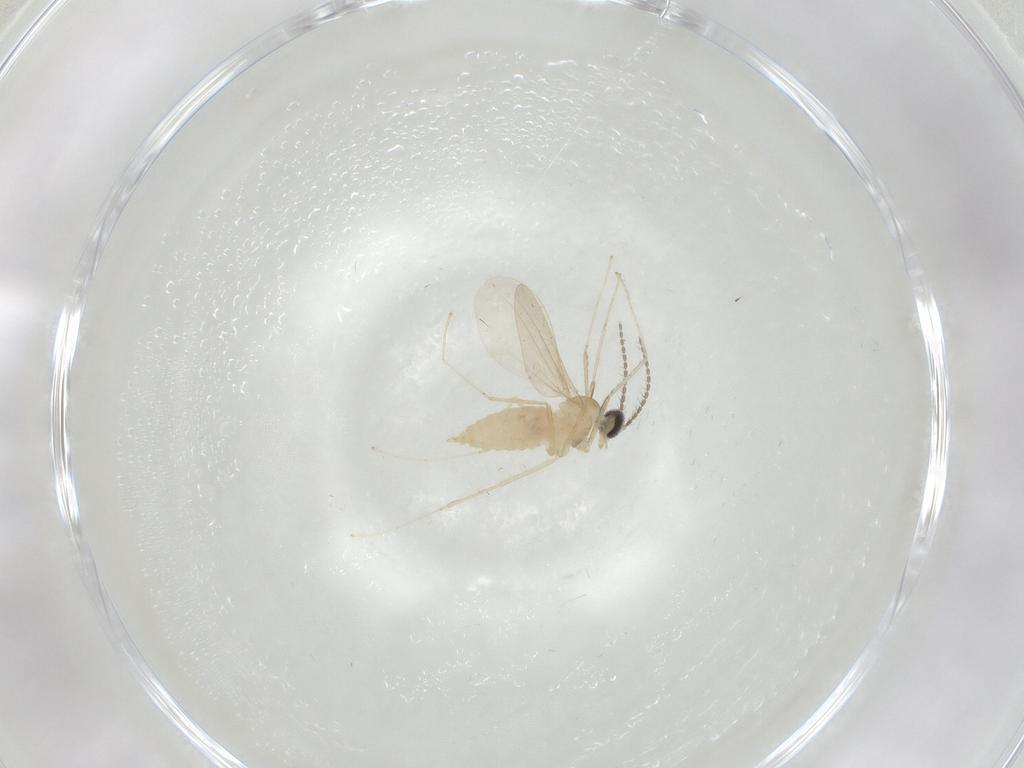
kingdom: Animalia
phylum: Arthropoda
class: Insecta
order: Diptera
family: Cecidomyiidae
